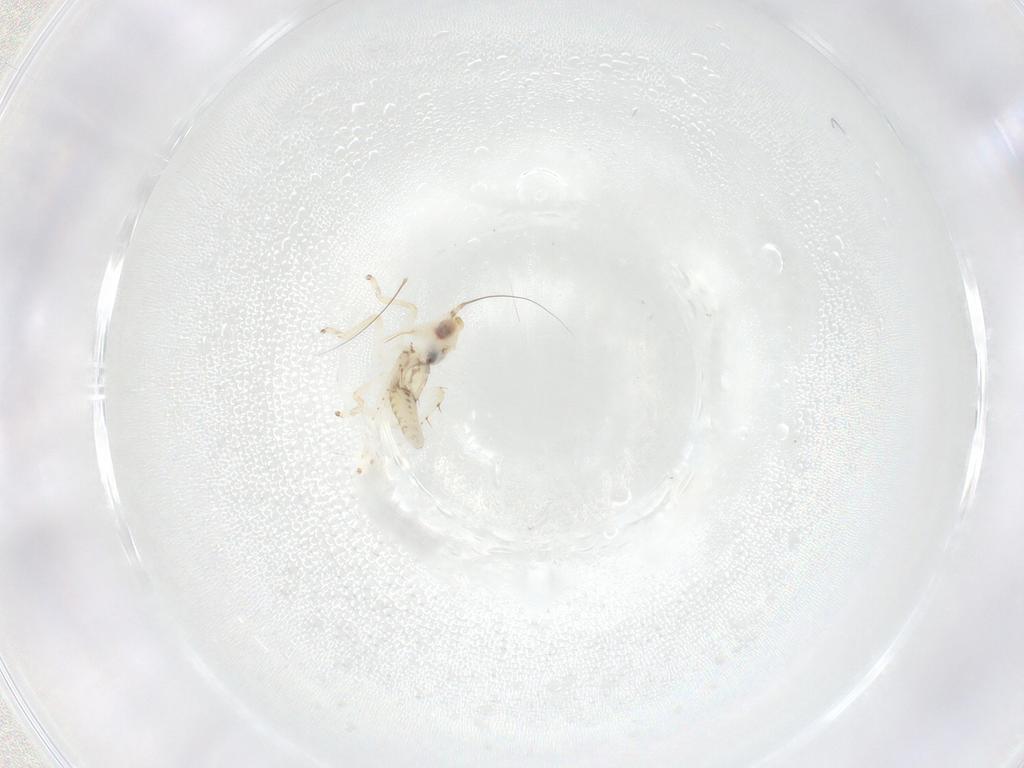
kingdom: Animalia
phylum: Arthropoda
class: Insecta
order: Hemiptera
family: Cicadellidae
